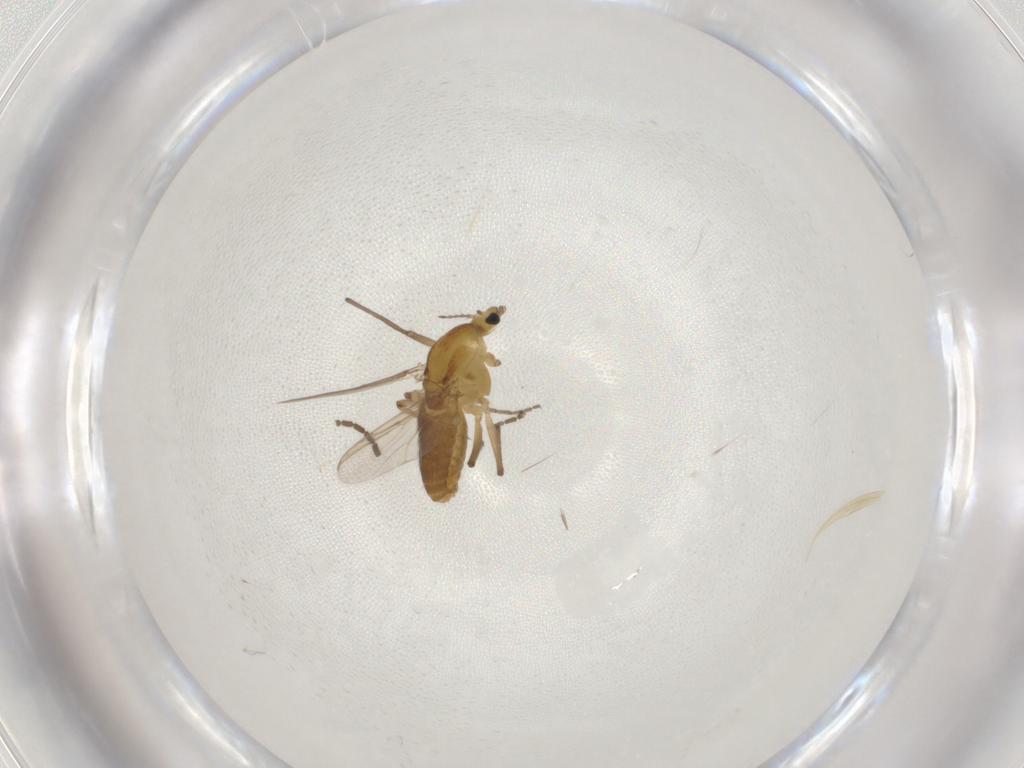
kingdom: Animalia
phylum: Arthropoda
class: Insecta
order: Diptera
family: Chironomidae
